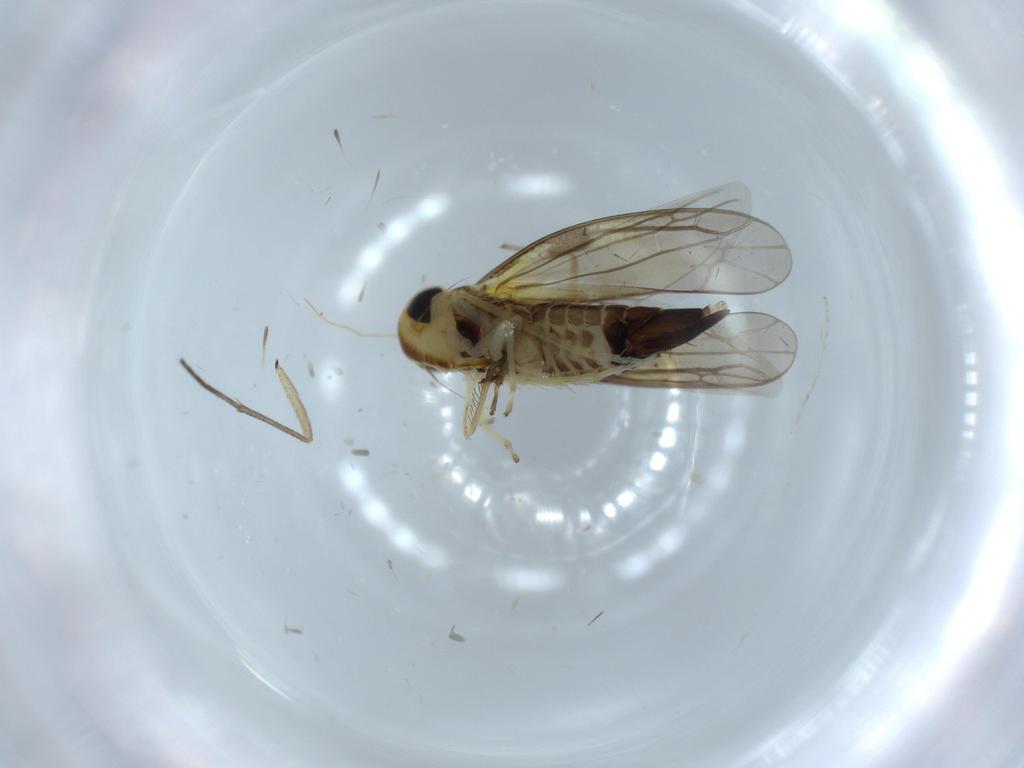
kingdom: Animalia
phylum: Arthropoda
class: Insecta
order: Hemiptera
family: Cicadellidae
